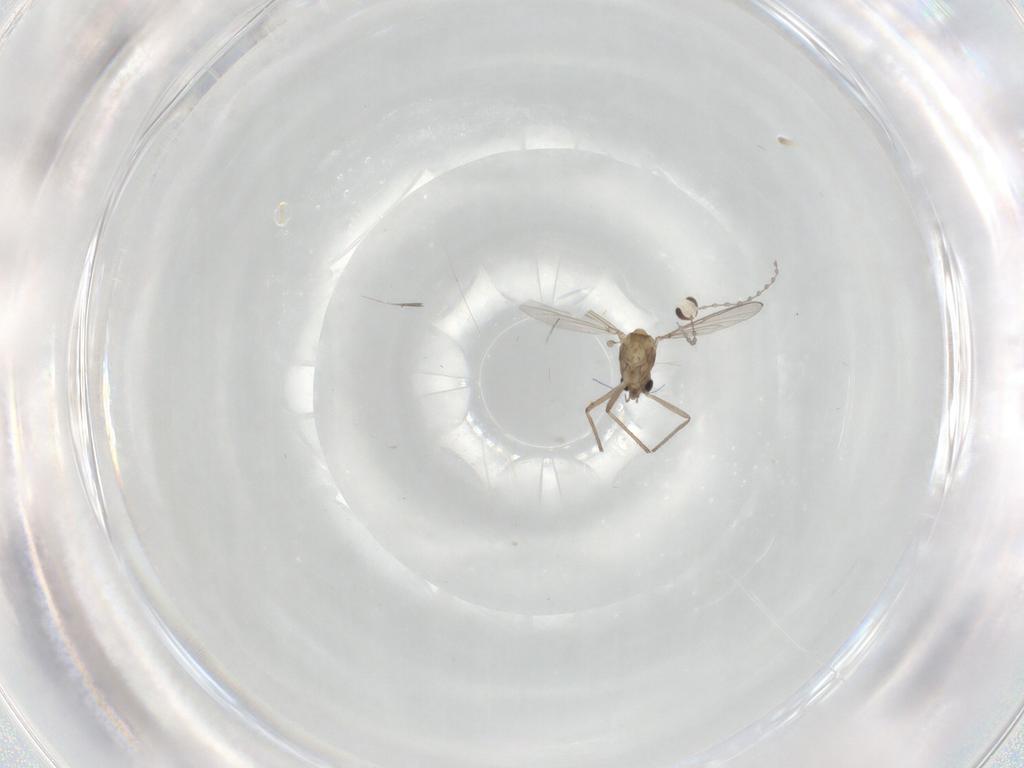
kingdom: Animalia
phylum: Arthropoda
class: Insecta
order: Diptera
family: Chironomidae
